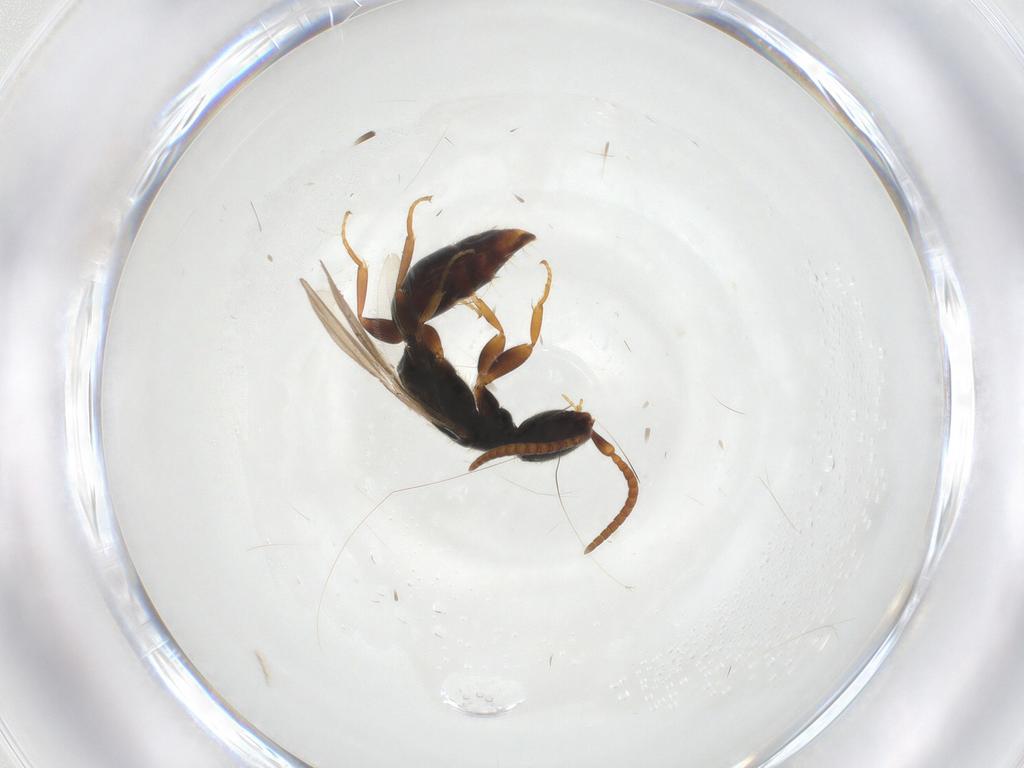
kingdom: Animalia
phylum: Arthropoda
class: Insecta
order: Hymenoptera
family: Bethylidae
